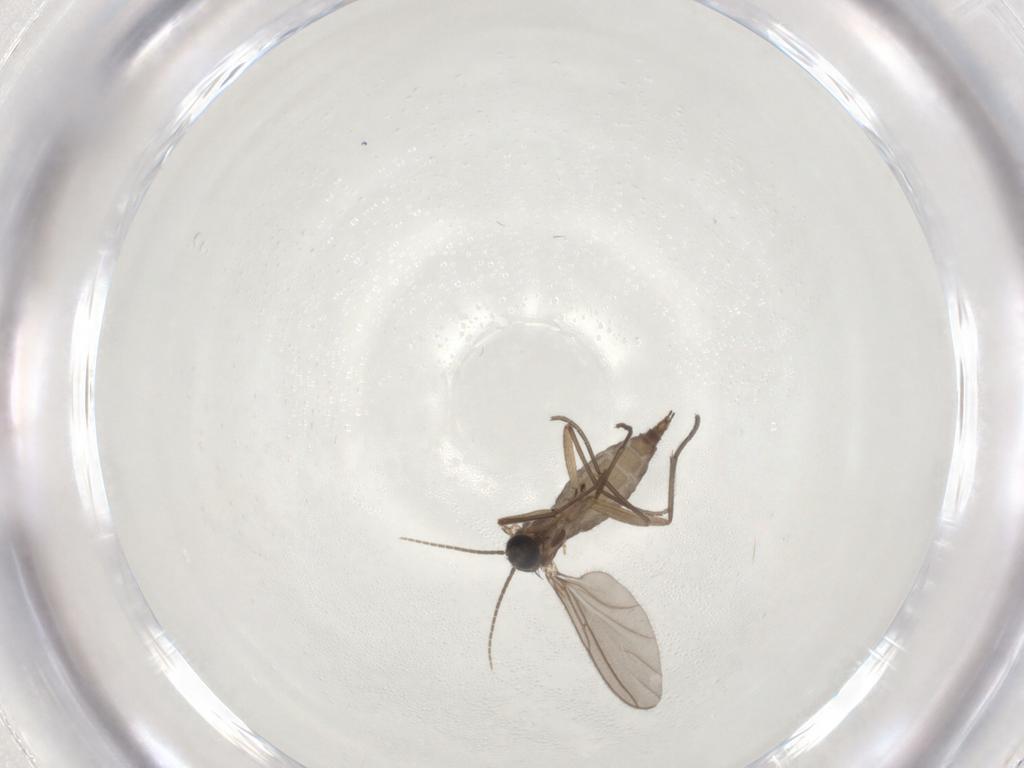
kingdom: Animalia
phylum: Arthropoda
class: Insecta
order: Diptera
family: Sciaridae
